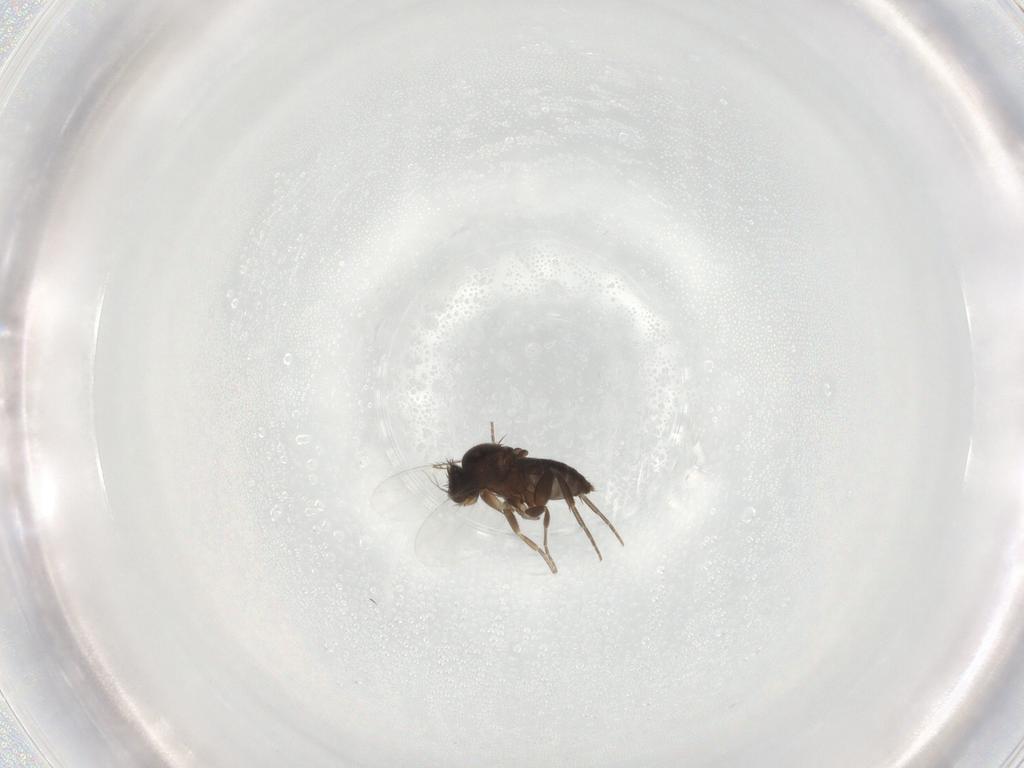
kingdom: Animalia
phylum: Arthropoda
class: Insecta
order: Diptera
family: Phoridae
